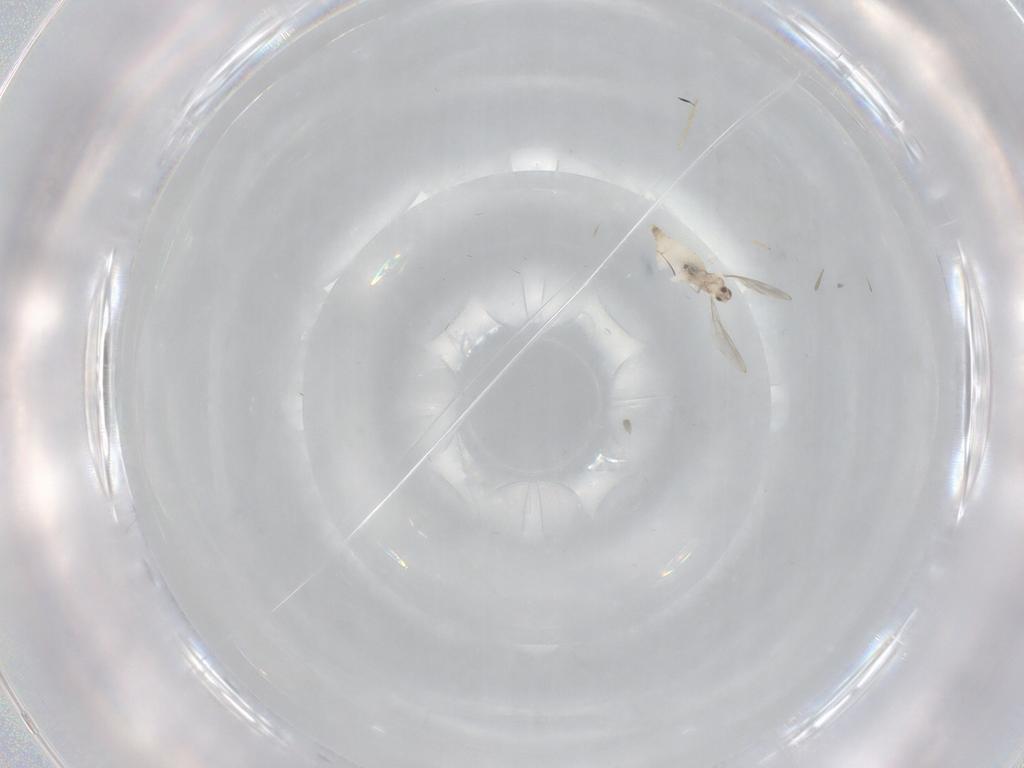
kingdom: Animalia
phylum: Arthropoda
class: Insecta
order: Diptera
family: Cecidomyiidae
